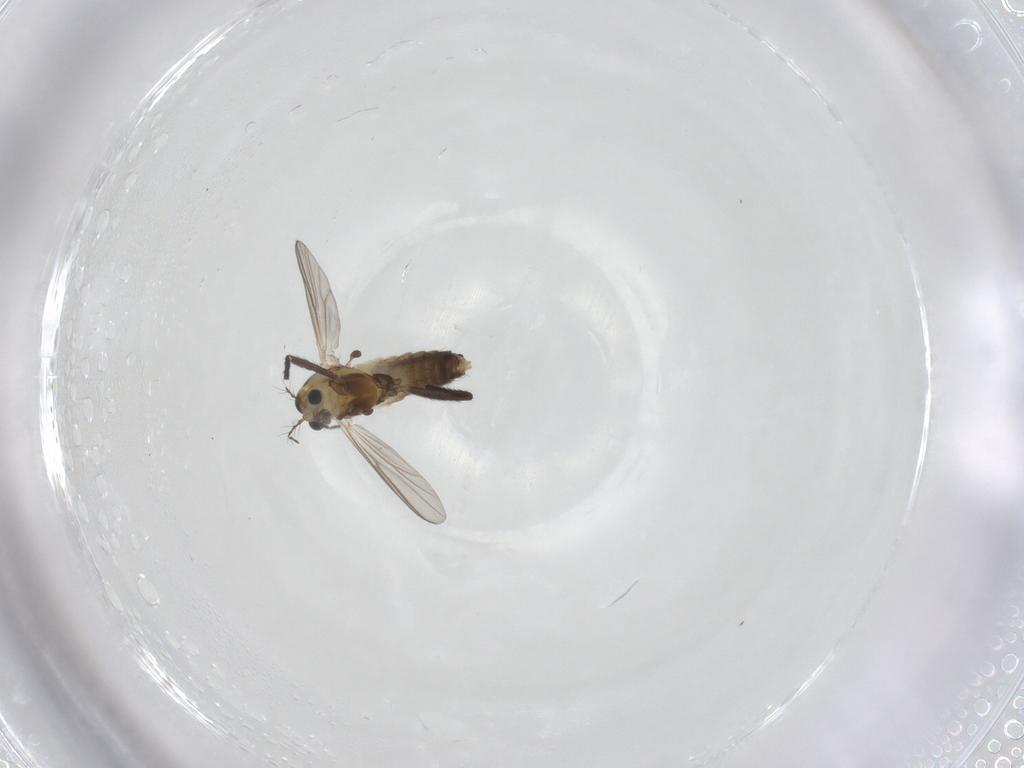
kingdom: Animalia
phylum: Arthropoda
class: Insecta
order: Diptera
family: Chironomidae
